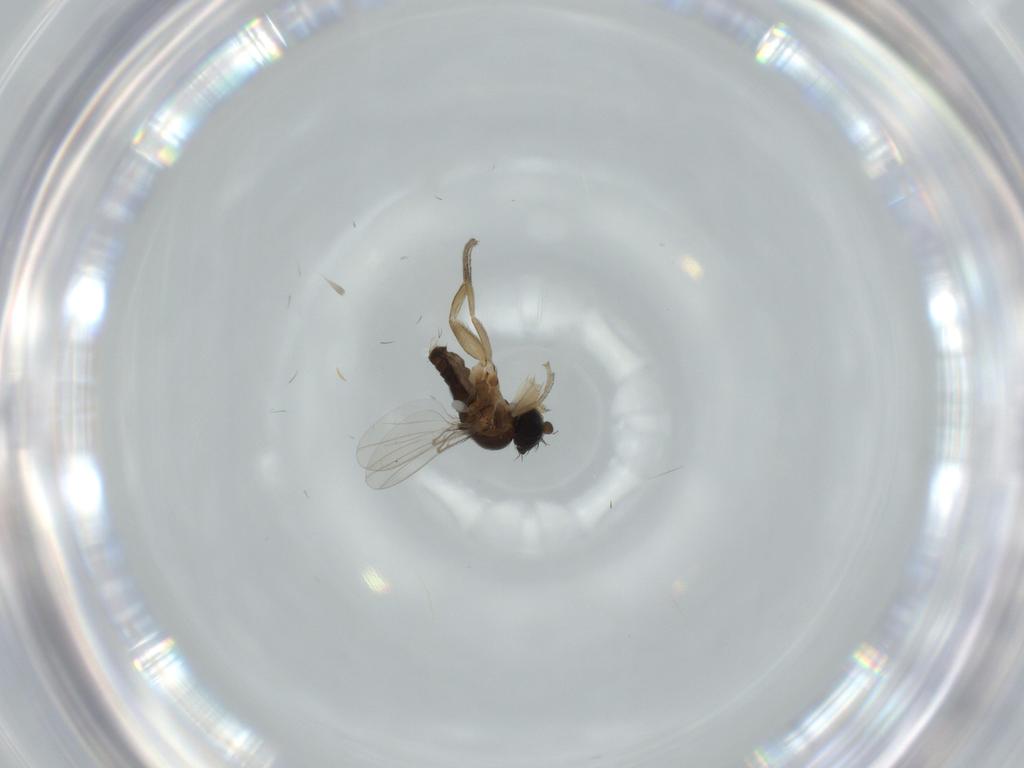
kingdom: Animalia
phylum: Arthropoda
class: Insecta
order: Diptera
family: Phoridae
